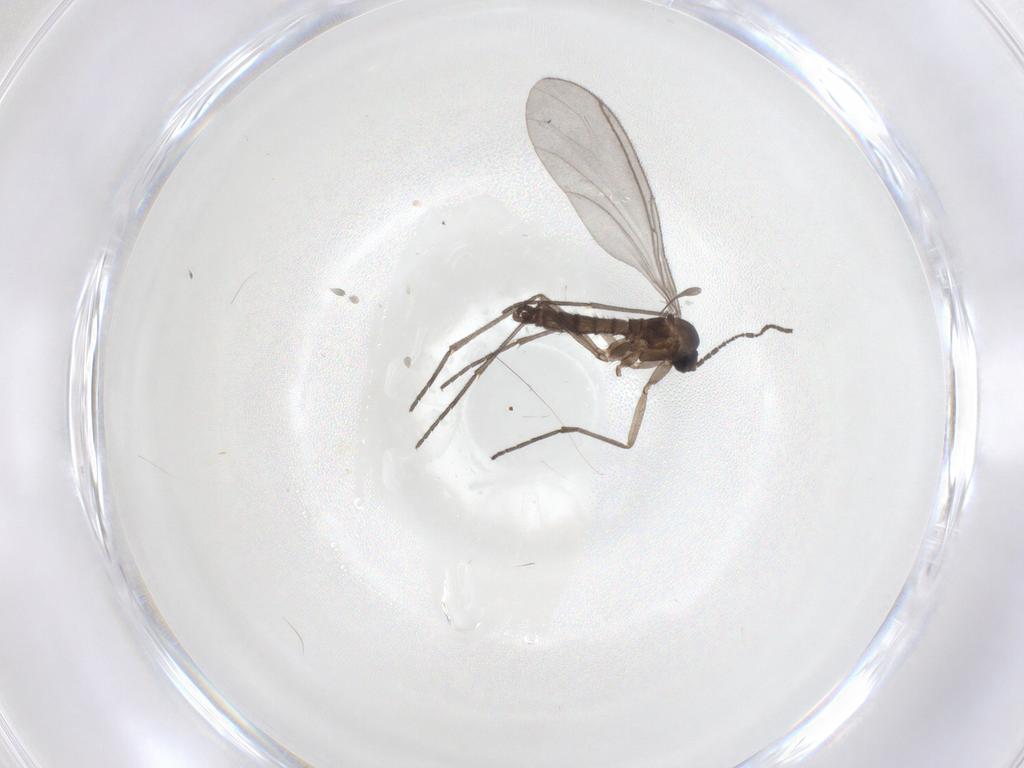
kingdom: Animalia
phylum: Arthropoda
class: Insecta
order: Diptera
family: Sciaridae
